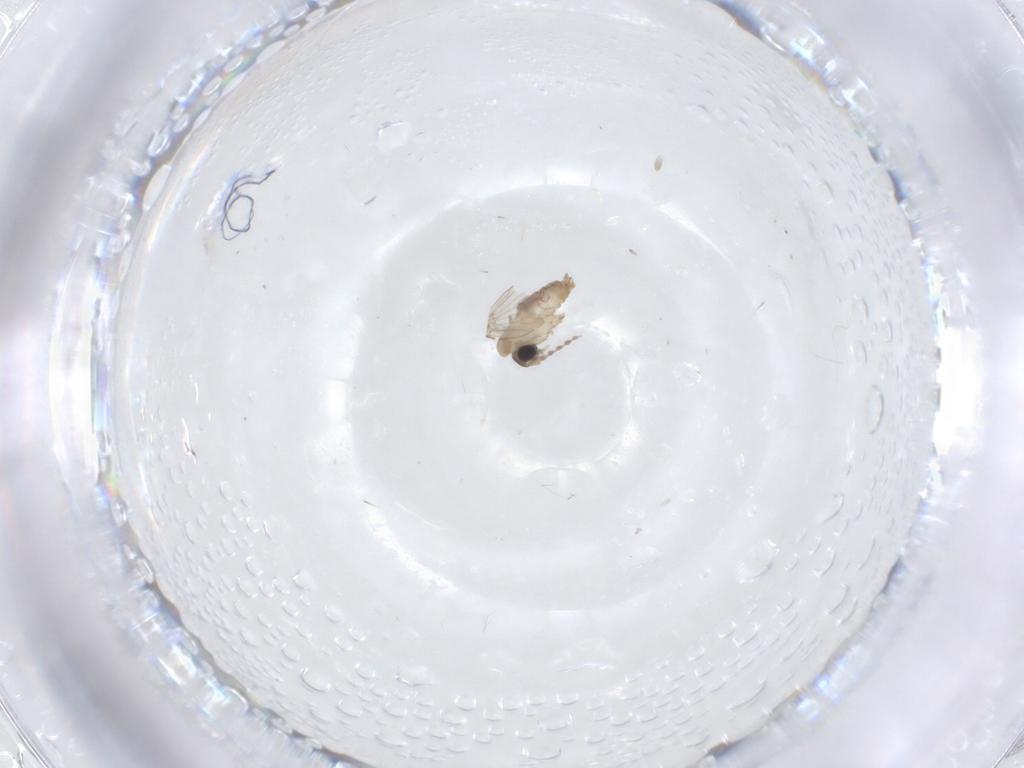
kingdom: Animalia
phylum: Arthropoda
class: Insecta
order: Diptera
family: Psychodidae
